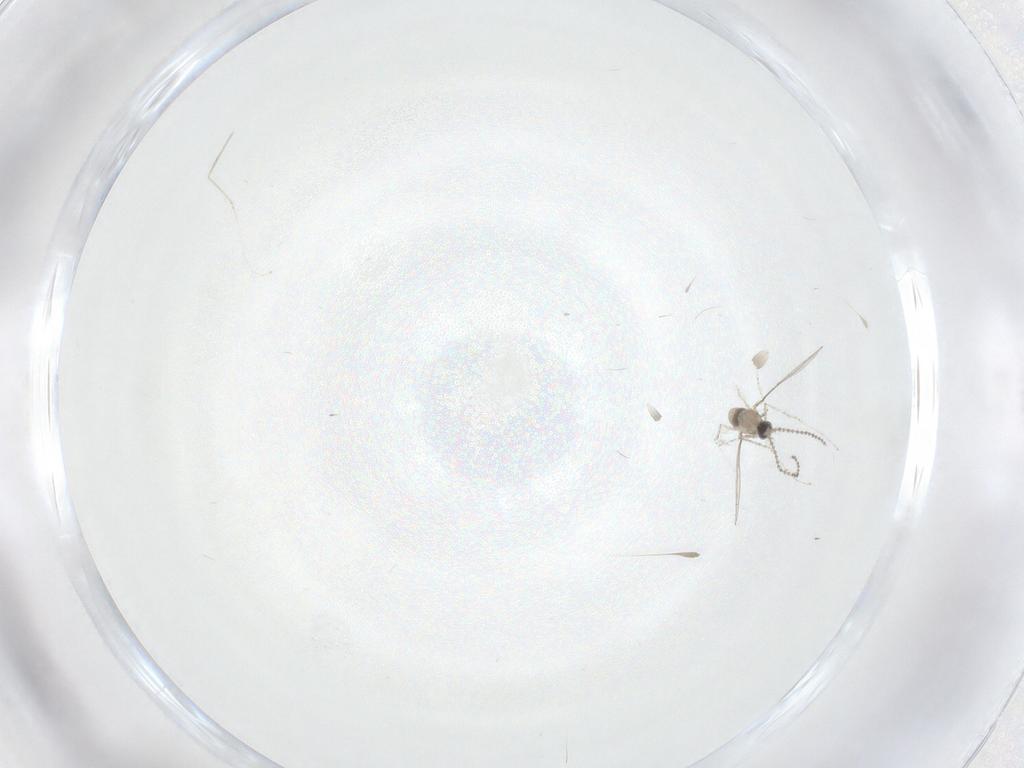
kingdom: Animalia
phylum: Arthropoda
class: Insecta
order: Diptera
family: Cecidomyiidae
